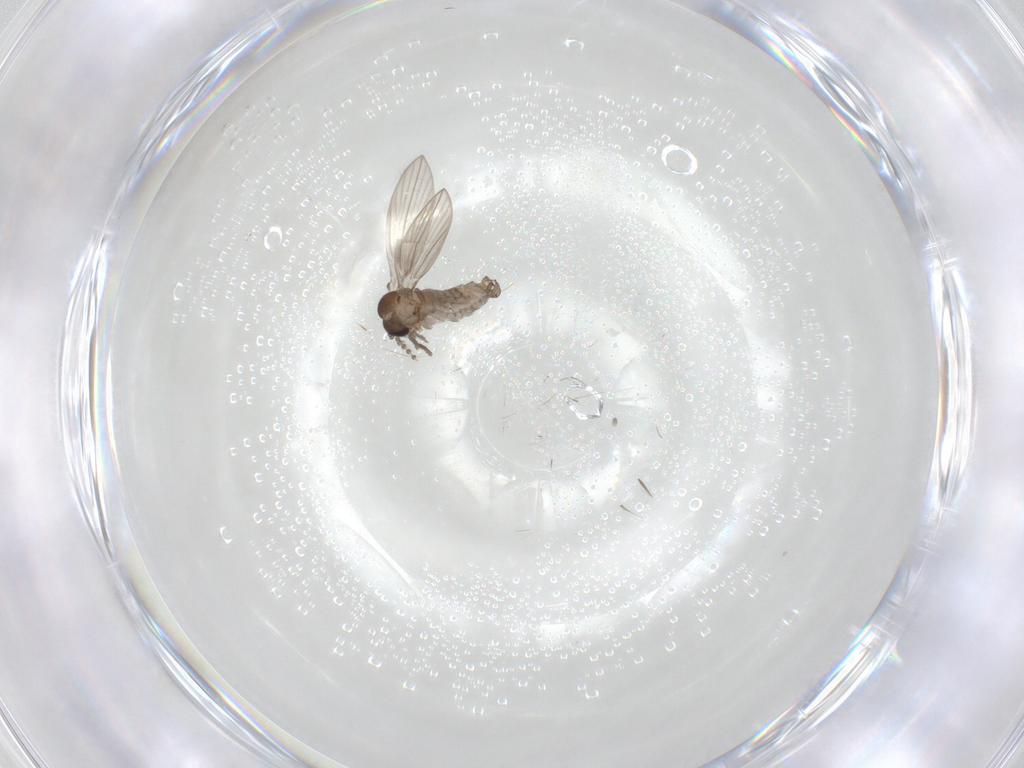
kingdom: Animalia
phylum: Arthropoda
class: Insecta
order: Diptera
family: Psychodidae
